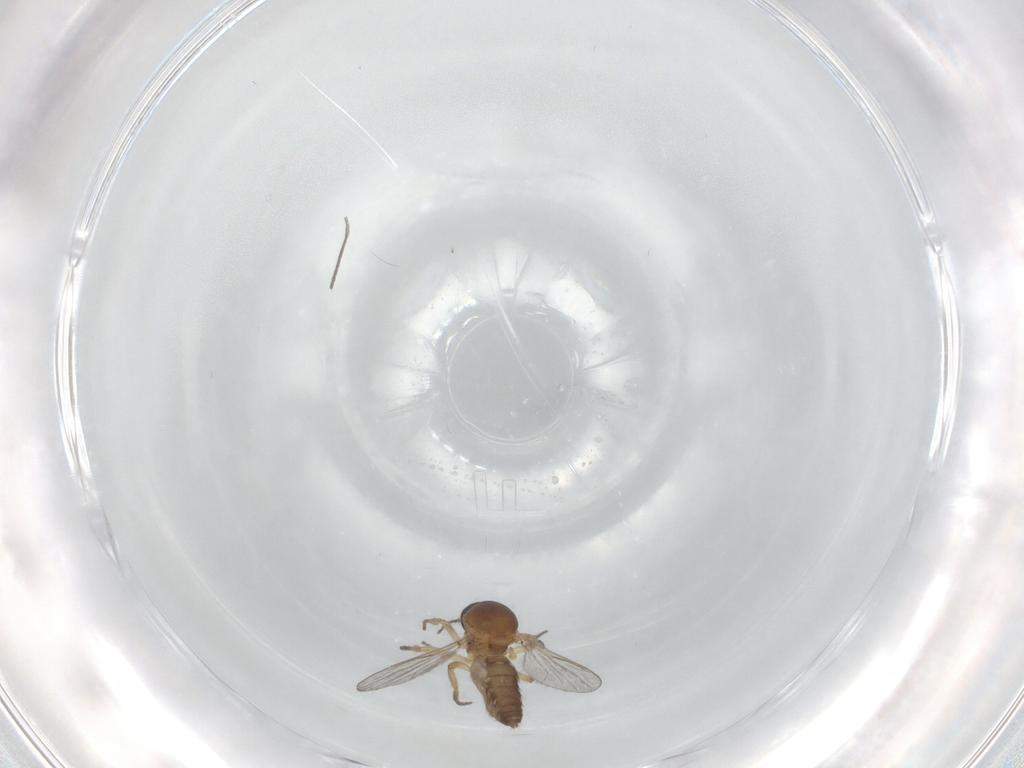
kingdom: Animalia
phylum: Arthropoda
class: Insecta
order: Diptera
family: Ceratopogonidae
